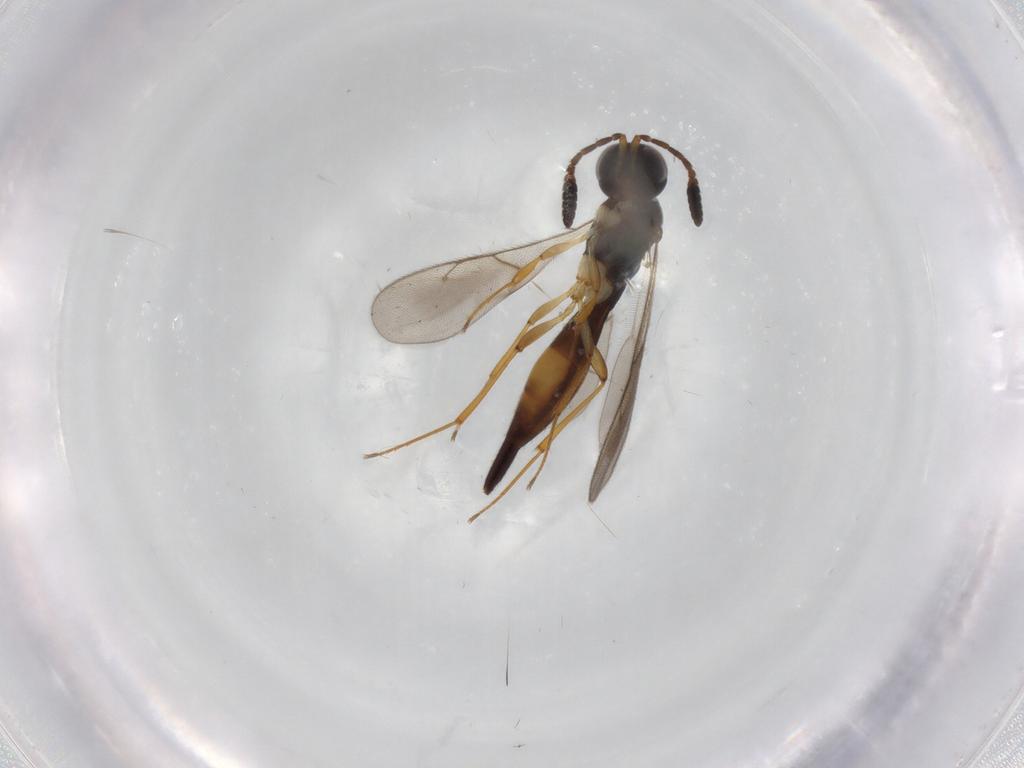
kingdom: Animalia
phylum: Arthropoda
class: Insecta
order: Hymenoptera
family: Scelionidae
